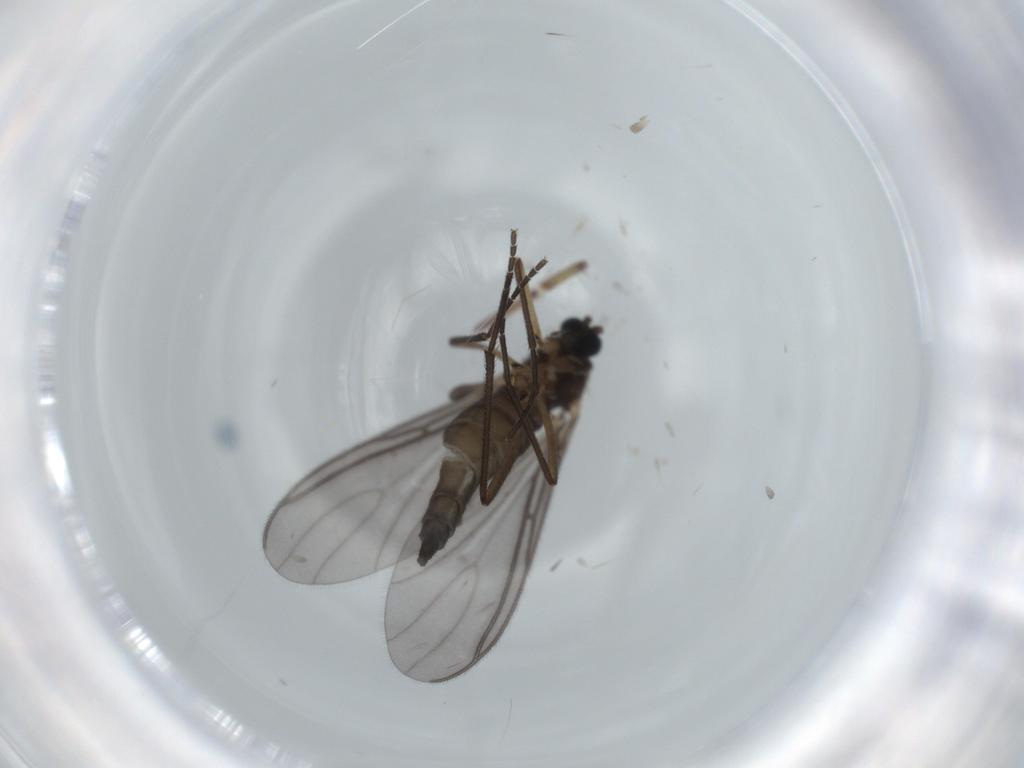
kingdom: Animalia
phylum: Arthropoda
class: Insecta
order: Diptera
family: Sciaridae
